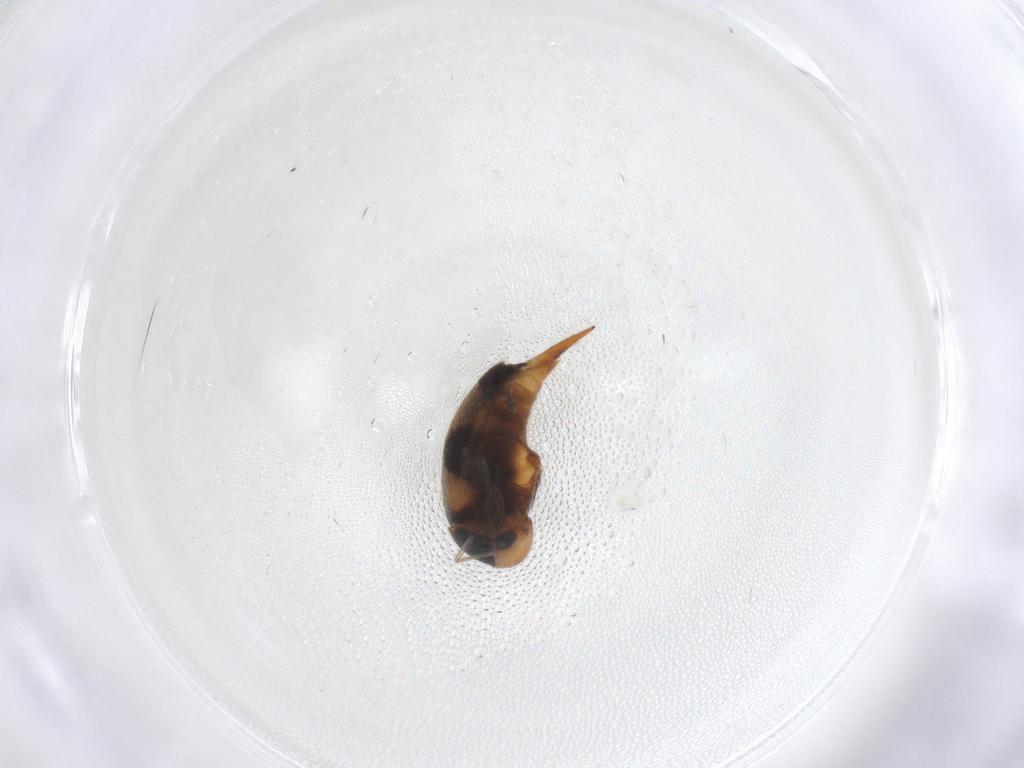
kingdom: Animalia
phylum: Arthropoda
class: Insecta
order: Coleoptera
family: Mordellidae
